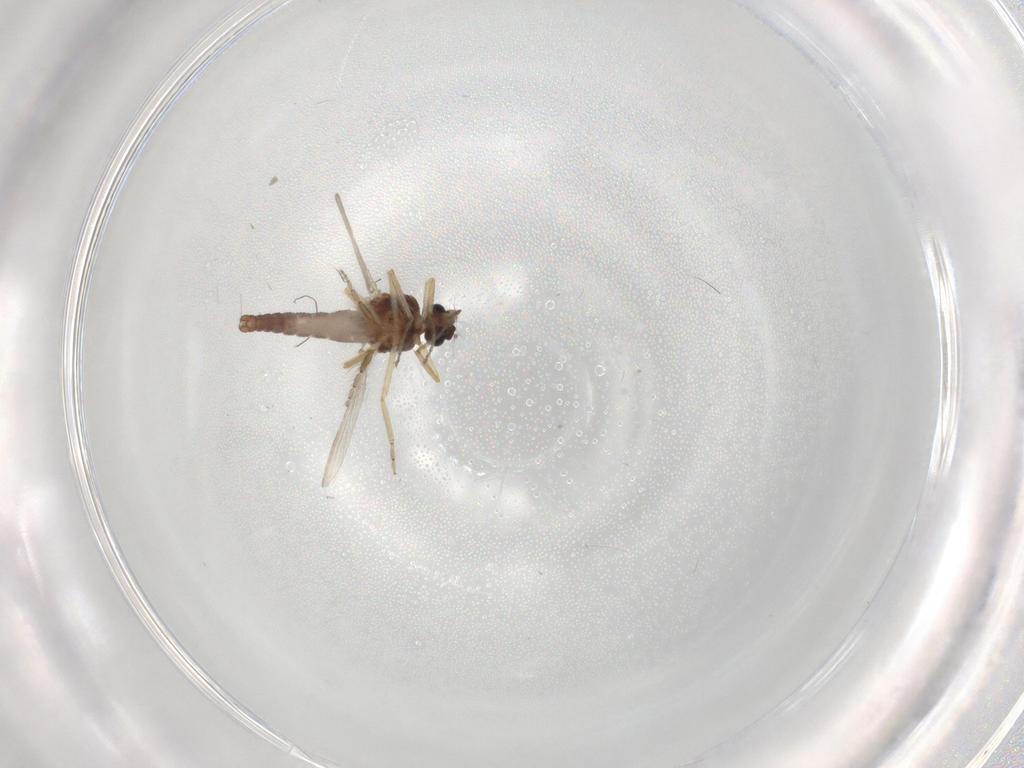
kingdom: Animalia
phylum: Arthropoda
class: Insecta
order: Diptera
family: Ceratopogonidae
